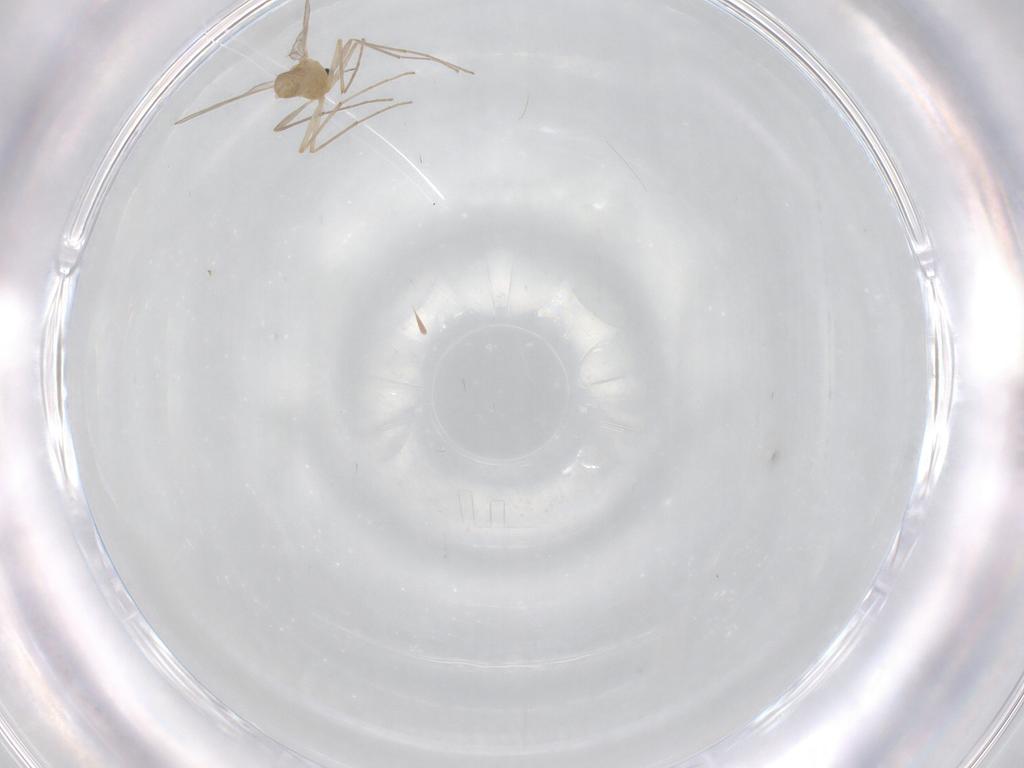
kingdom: Animalia
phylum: Arthropoda
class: Insecta
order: Diptera
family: Chironomidae
